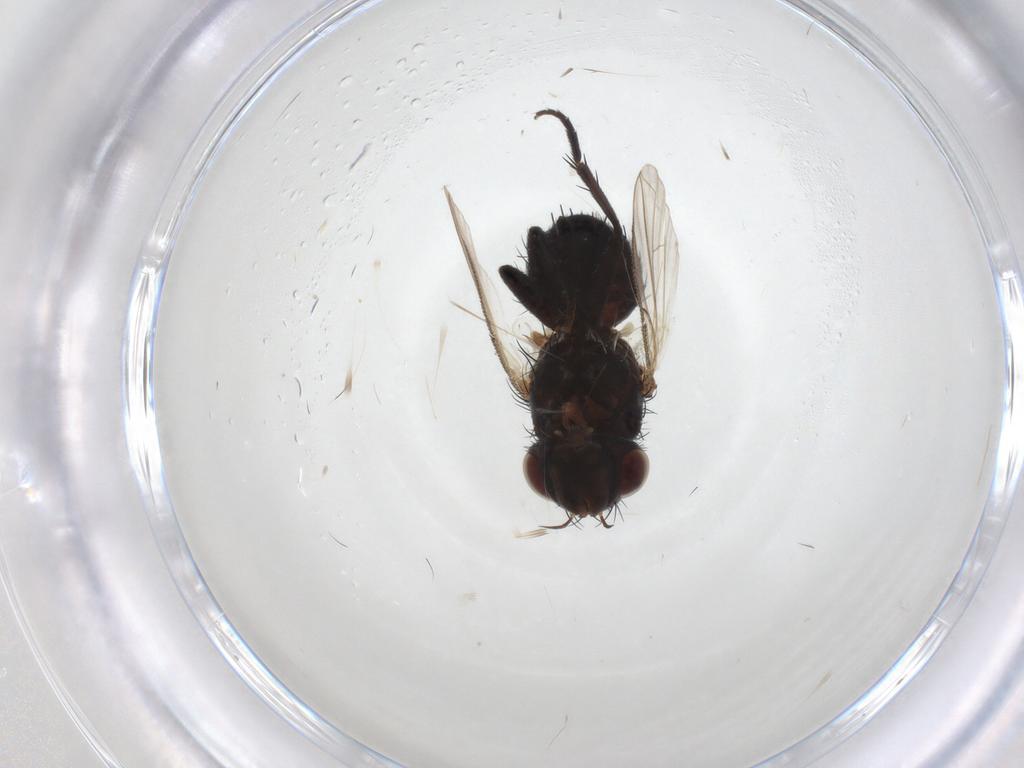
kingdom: Animalia
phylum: Arthropoda
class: Insecta
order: Diptera
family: Tachinidae
